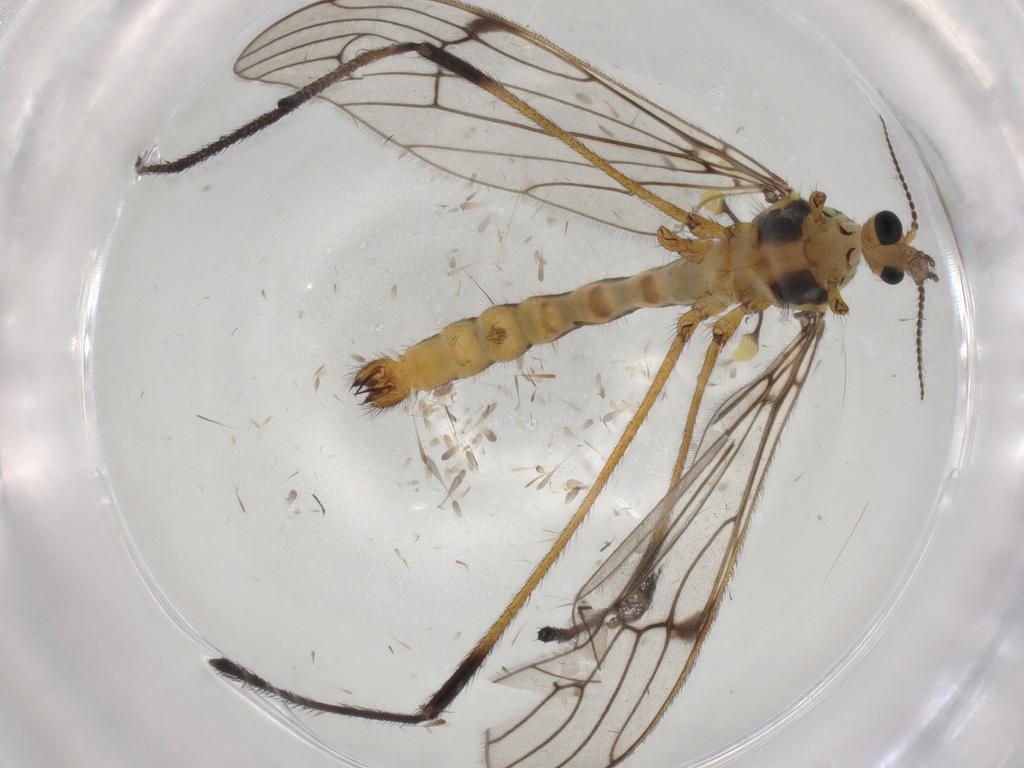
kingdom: Animalia
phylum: Arthropoda
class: Insecta
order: Diptera
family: Limoniidae
